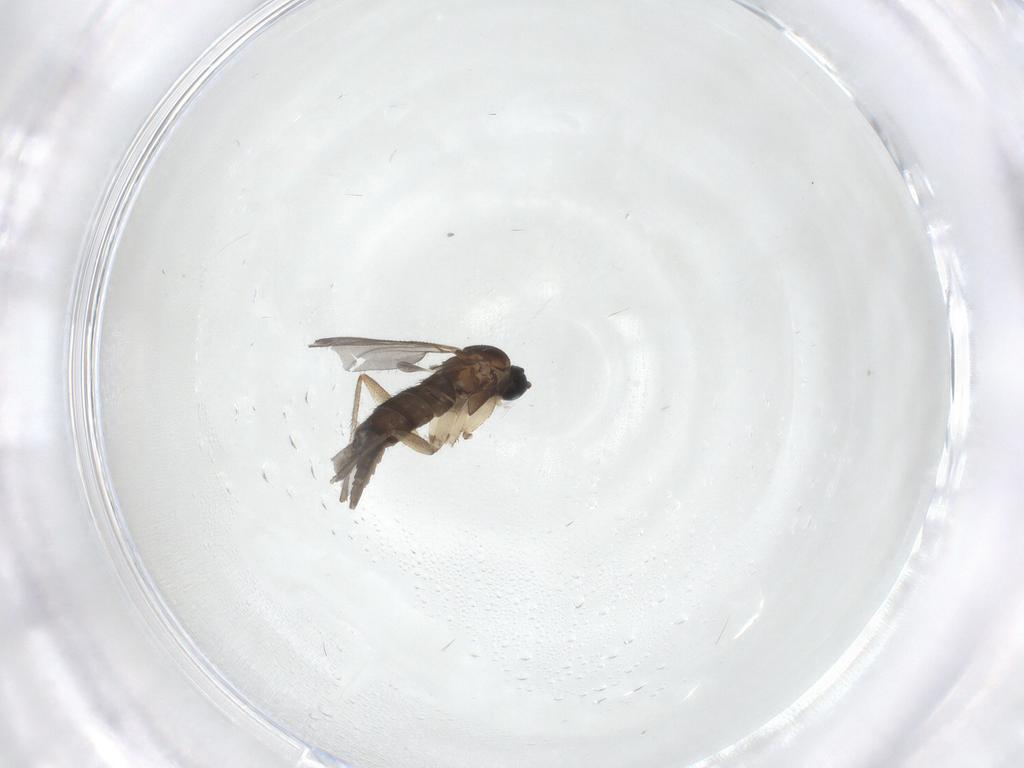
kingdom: Animalia
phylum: Arthropoda
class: Insecta
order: Diptera
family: Sciaridae
